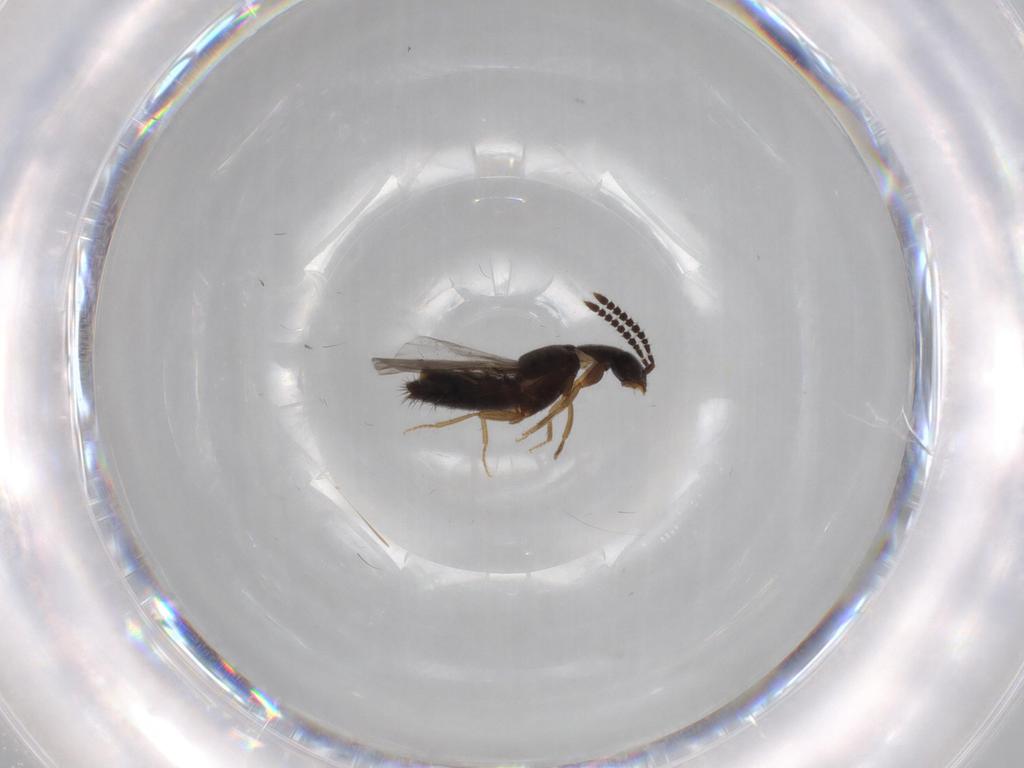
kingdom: Animalia
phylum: Arthropoda
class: Insecta
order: Coleoptera
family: Staphylinidae
